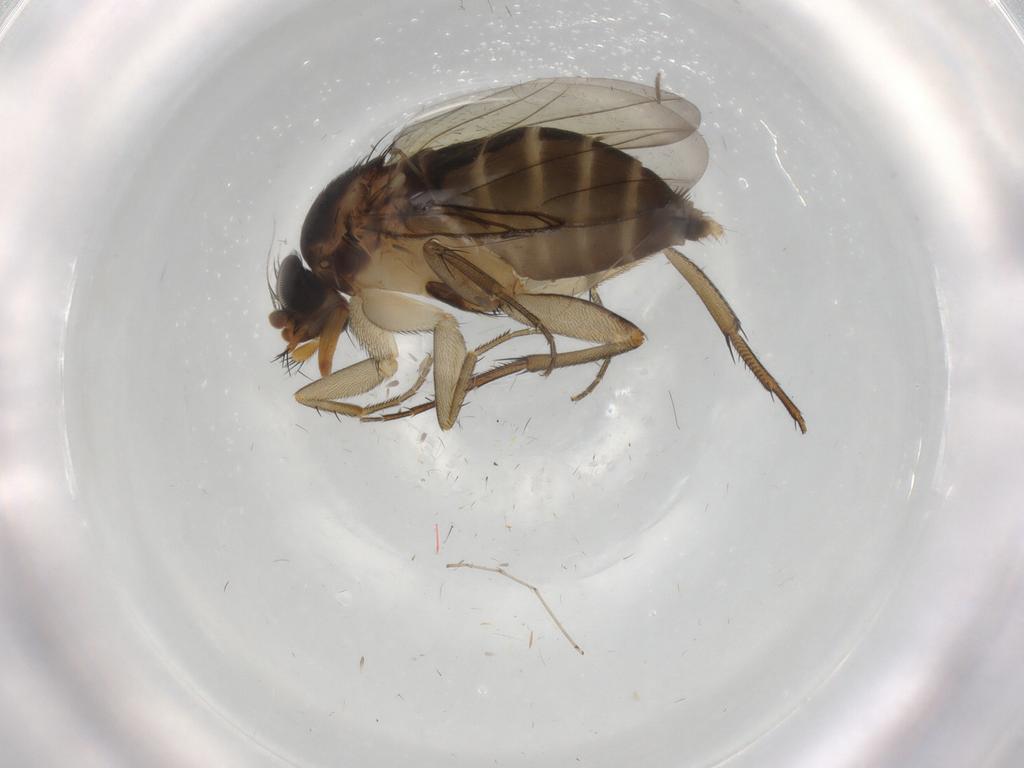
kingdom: Animalia
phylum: Arthropoda
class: Insecta
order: Diptera
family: Phoridae
